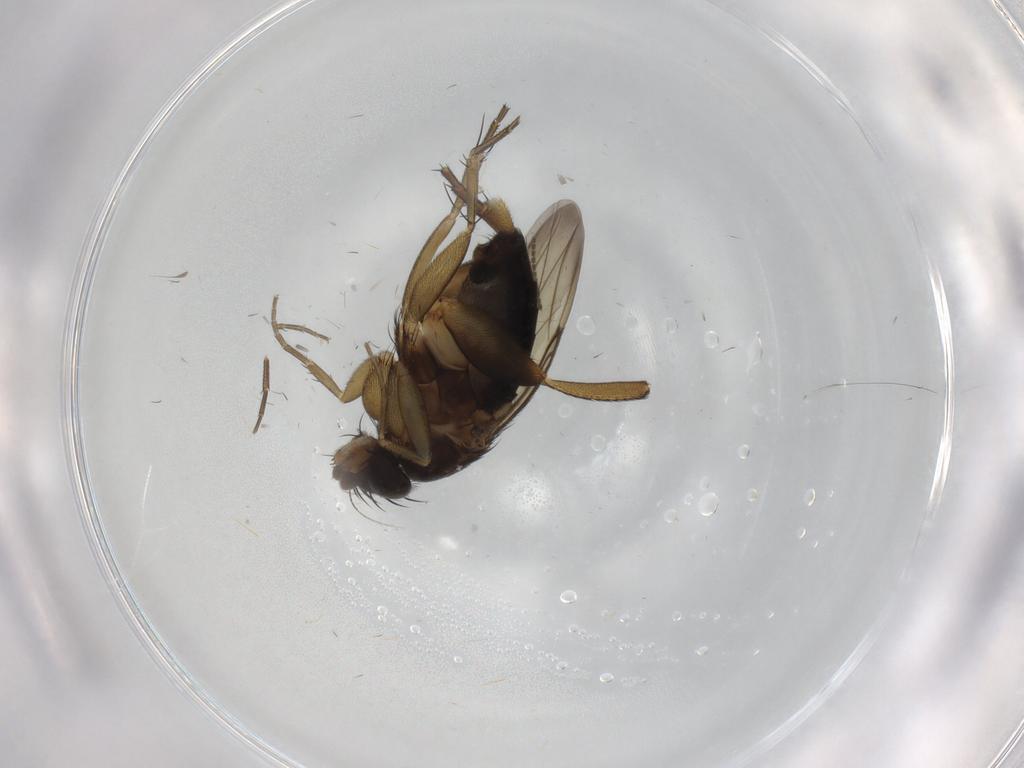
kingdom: Animalia
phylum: Arthropoda
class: Insecta
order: Diptera
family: Phoridae
